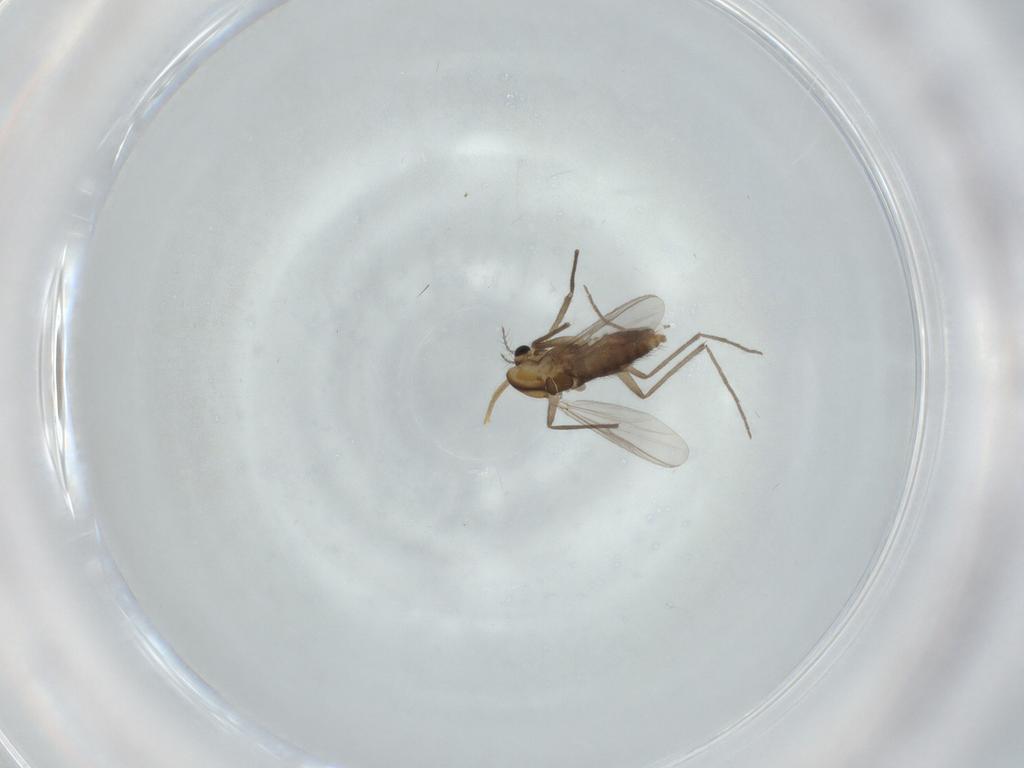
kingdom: Animalia
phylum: Arthropoda
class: Insecta
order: Diptera
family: Chironomidae
